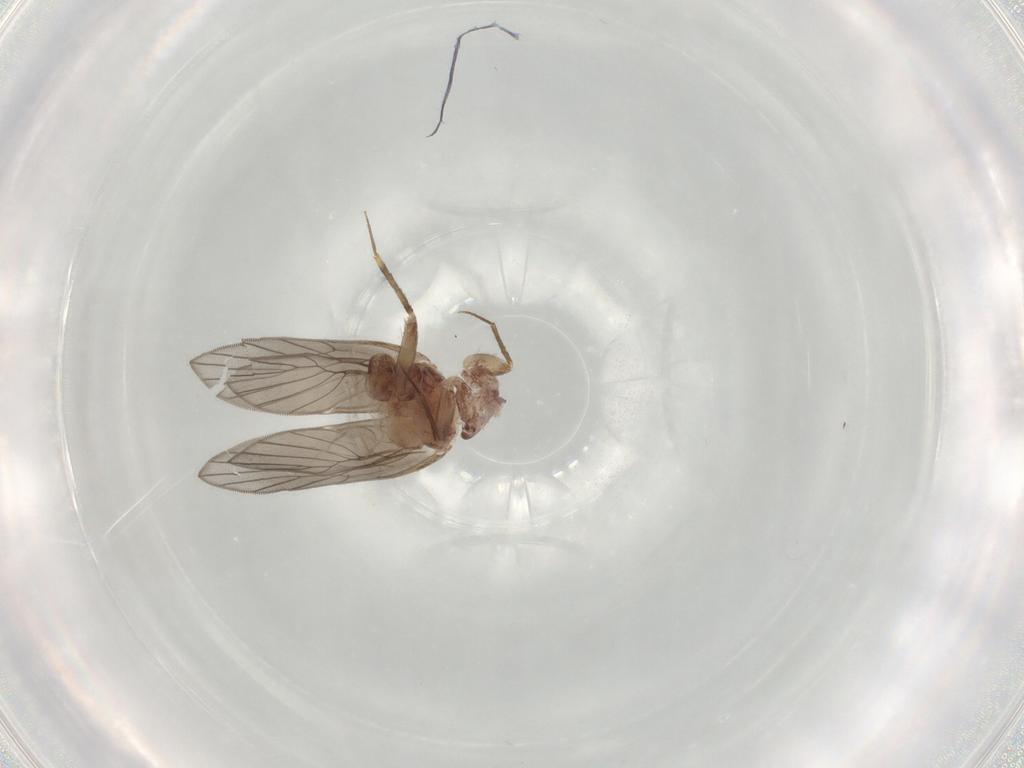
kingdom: Animalia
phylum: Arthropoda
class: Insecta
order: Psocodea
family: Lepidopsocidae
